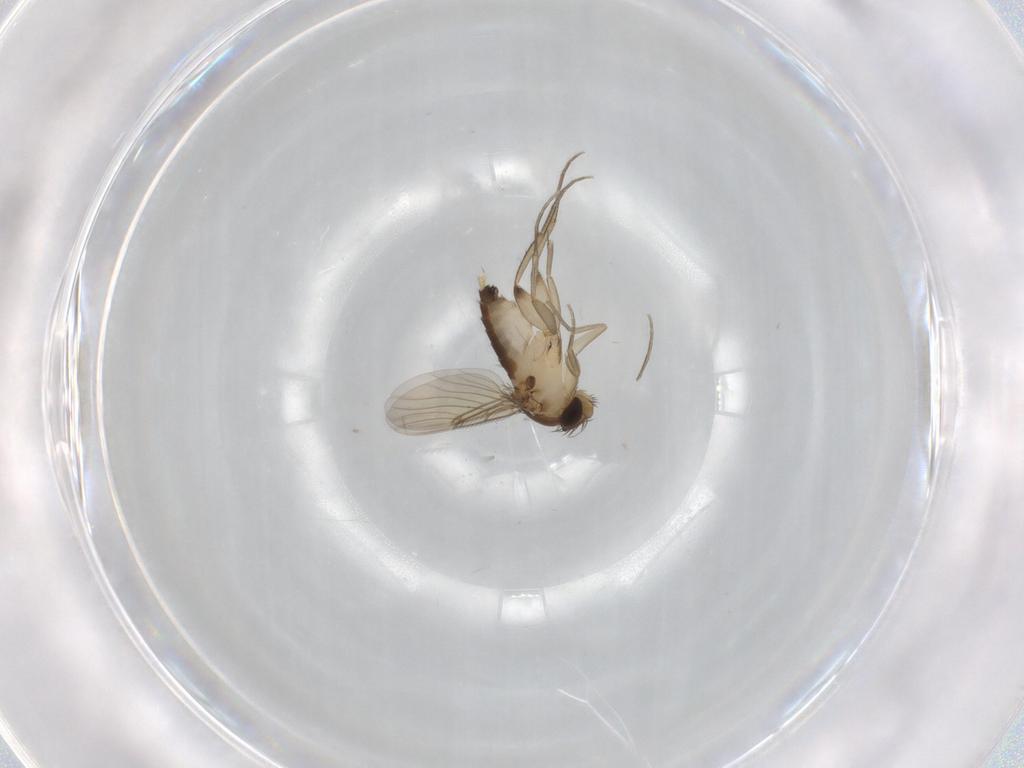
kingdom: Animalia
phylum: Arthropoda
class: Insecta
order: Diptera
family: Phoridae
